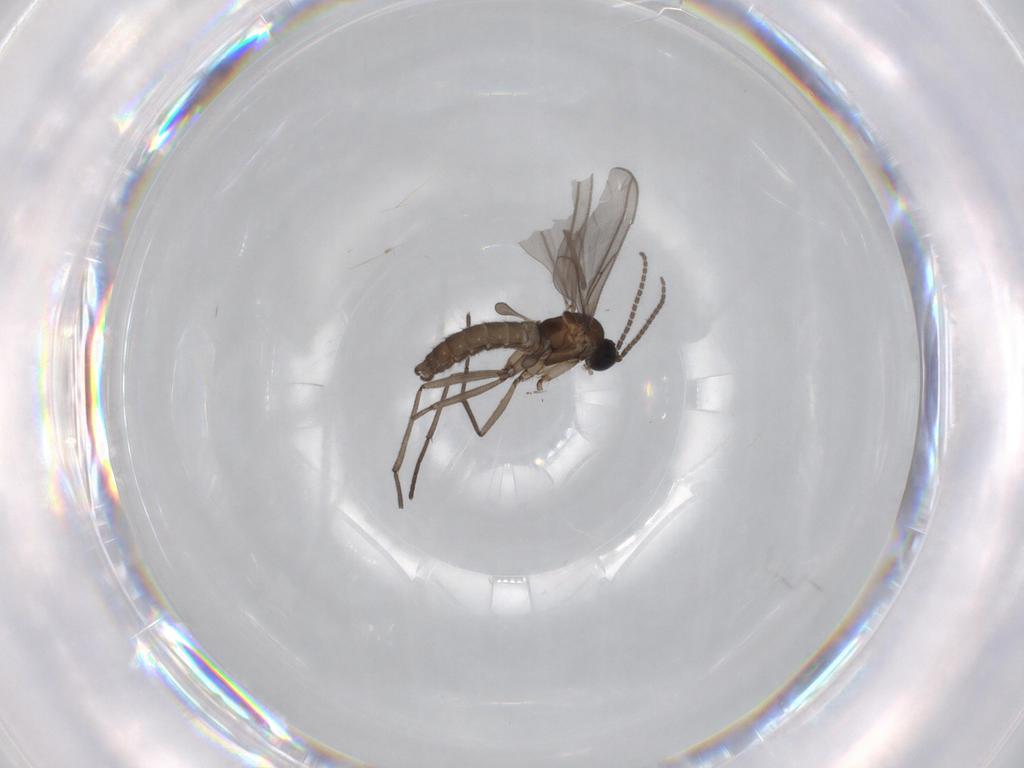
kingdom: Animalia
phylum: Arthropoda
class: Insecta
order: Diptera
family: Sciaridae
